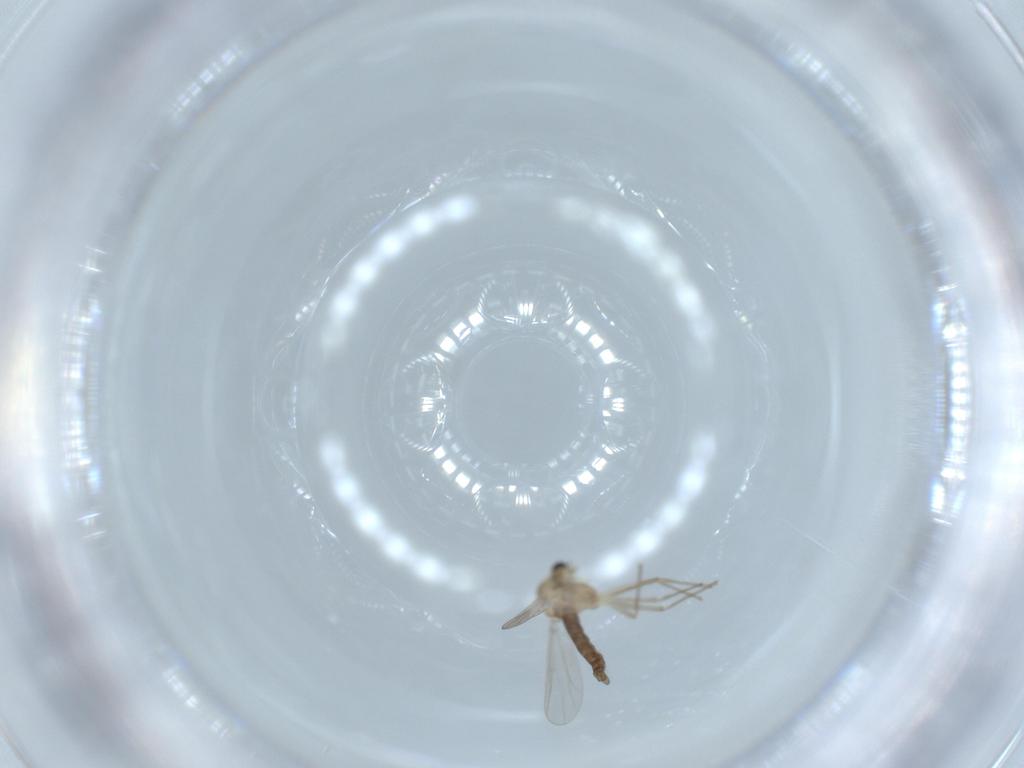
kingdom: Animalia
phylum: Arthropoda
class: Insecta
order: Diptera
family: Chironomidae
